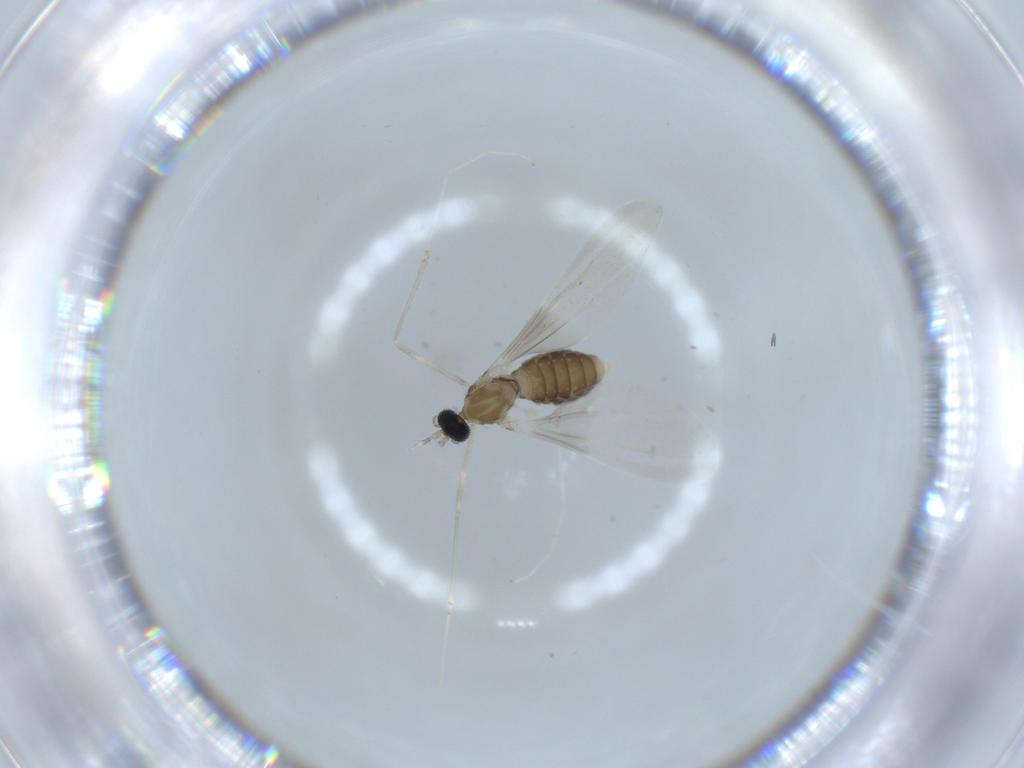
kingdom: Animalia
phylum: Arthropoda
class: Insecta
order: Diptera
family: Cecidomyiidae
